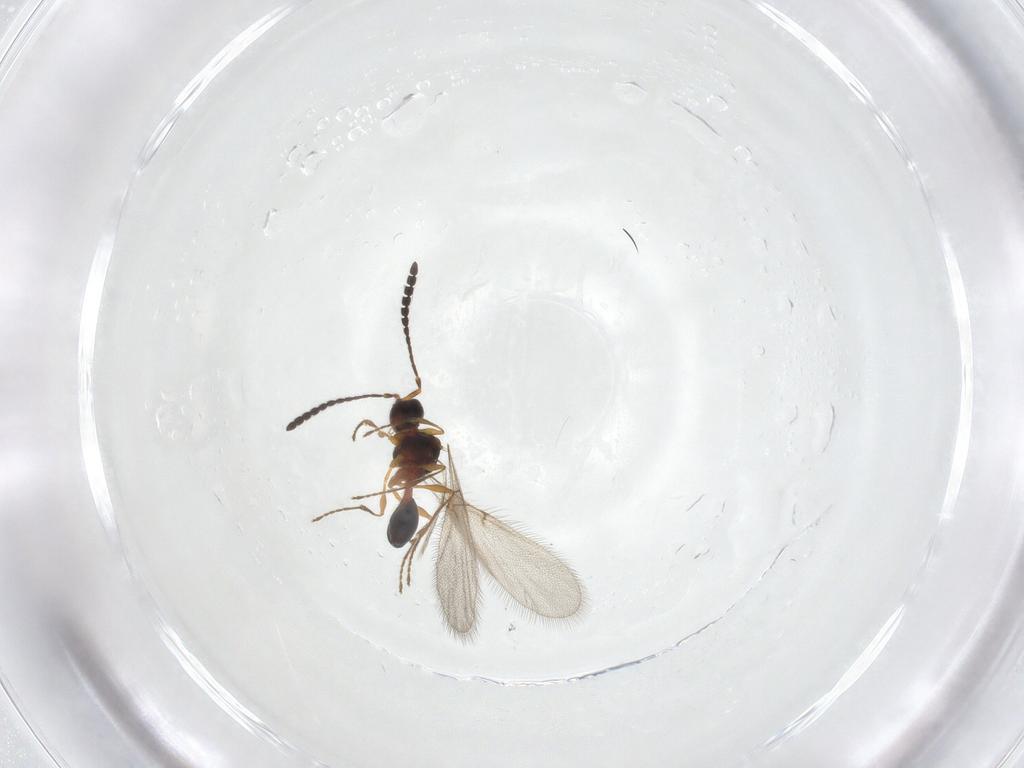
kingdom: Animalia
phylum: Arthropoda
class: Insecta
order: Hymenoptera
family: Diapriidae
